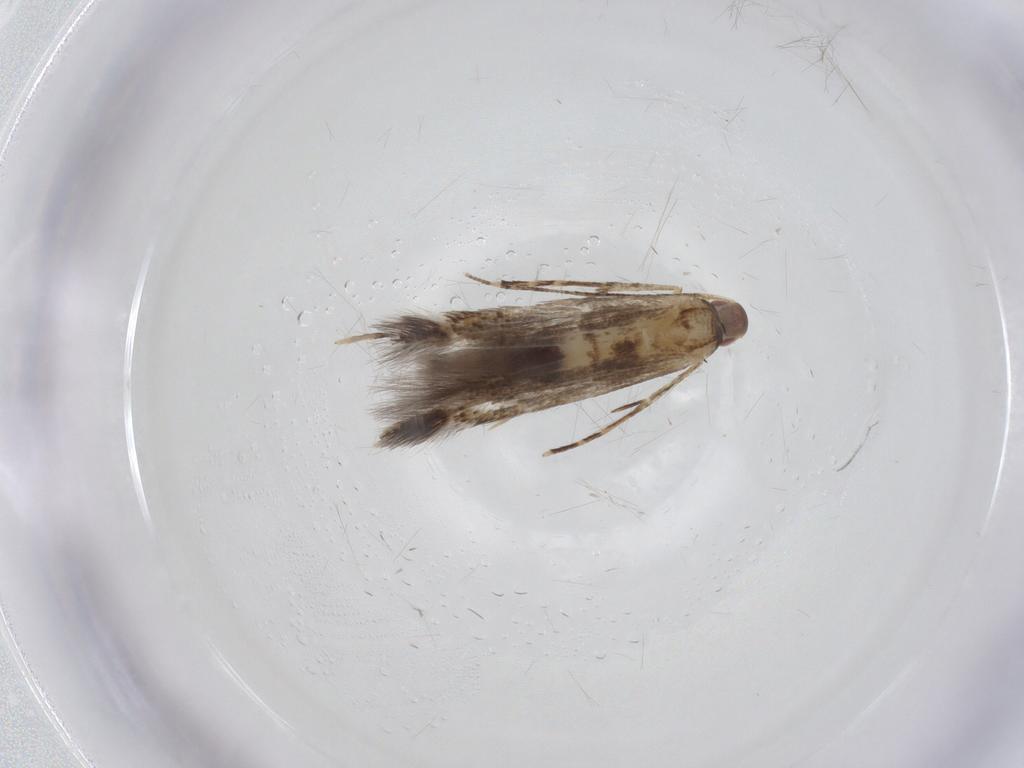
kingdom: Animalia
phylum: Arthropoda
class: Insecta
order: Lepidoptera
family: Cosmopterigidae
